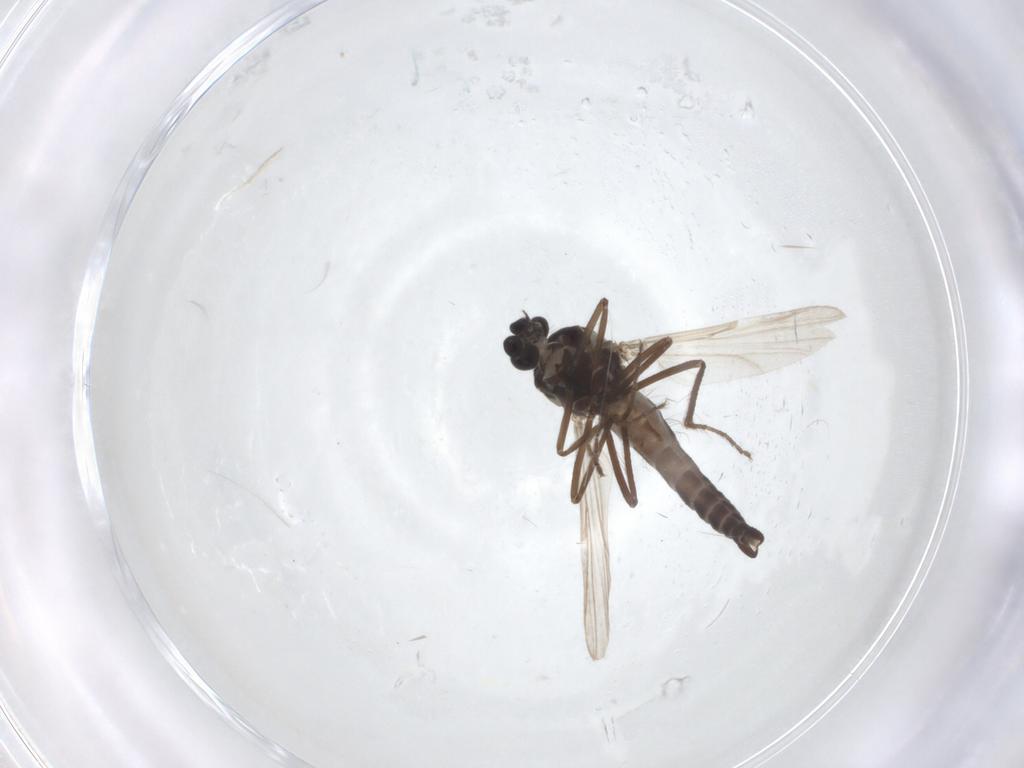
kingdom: Animalia
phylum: Arthropoda
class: Insecta
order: Diptera
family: Ceratopogonidae
